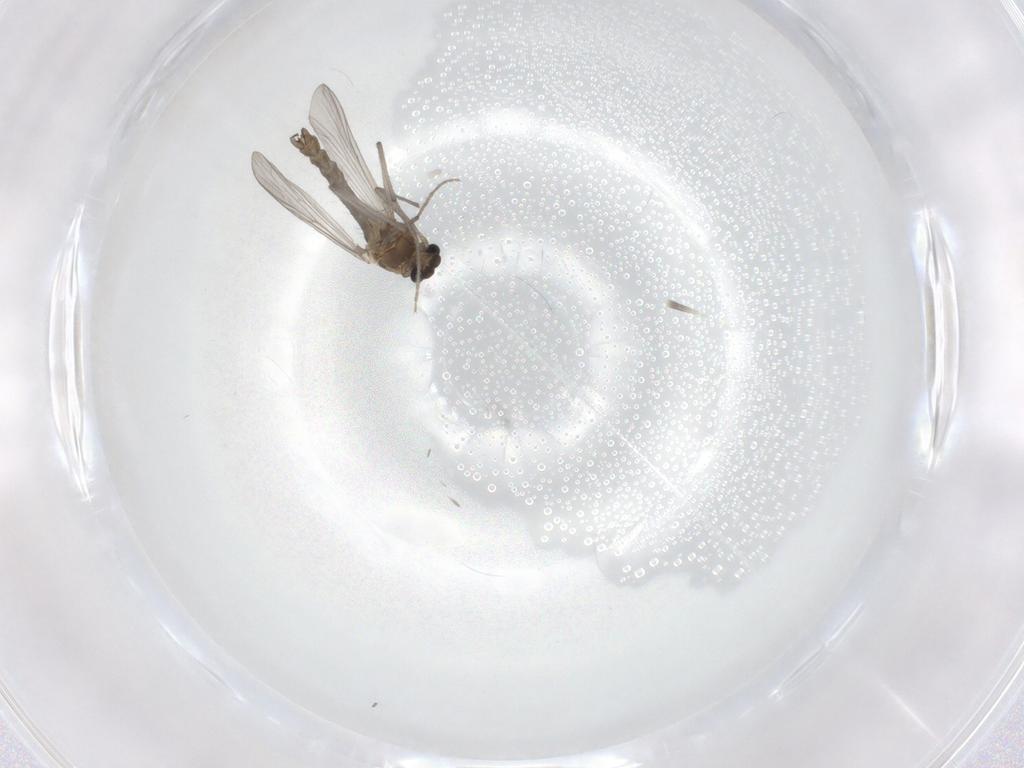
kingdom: Animalia
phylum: Arthropoda
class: Insecta
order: Diptera
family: Chironomidae
